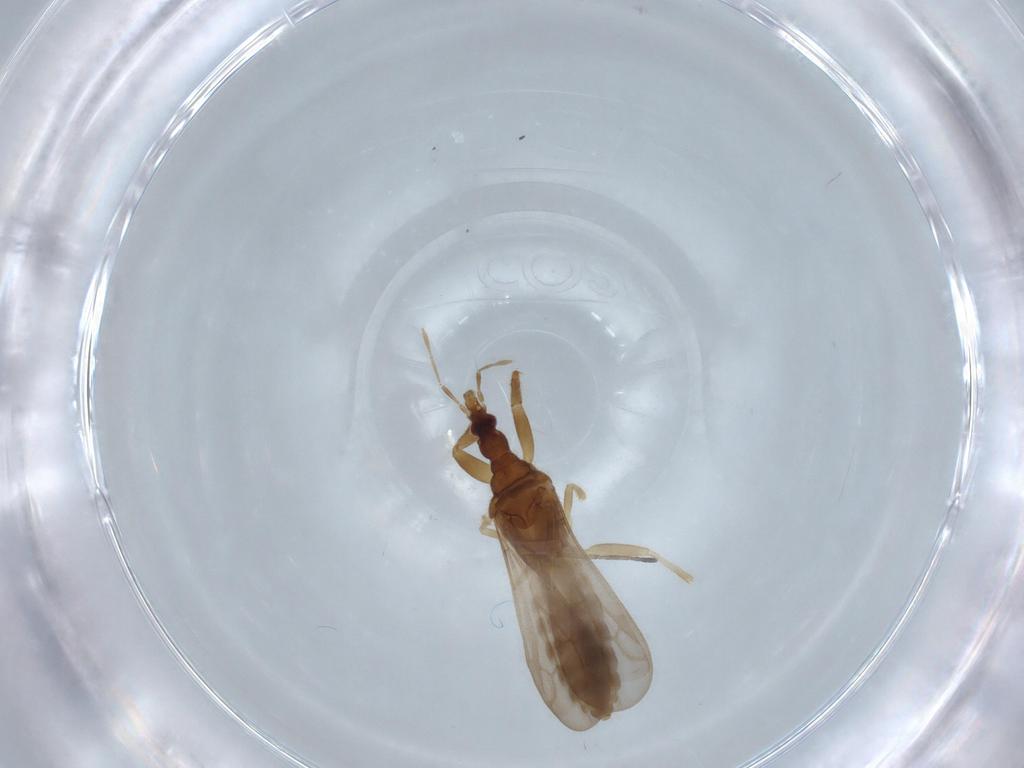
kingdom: Animalia
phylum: Arthropoda
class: Insecta
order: Hemiptera
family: Enicocephalidae
